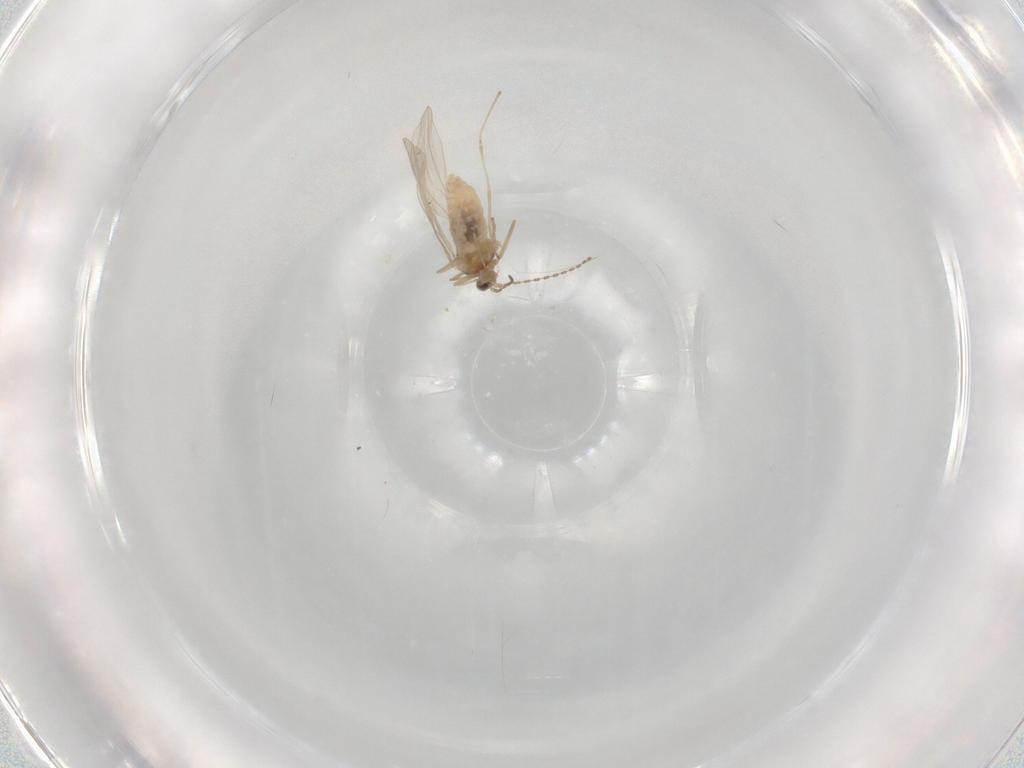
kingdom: Animalia
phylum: Arthropoda
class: Insecta
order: Diptera
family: Cecidomyiidae
